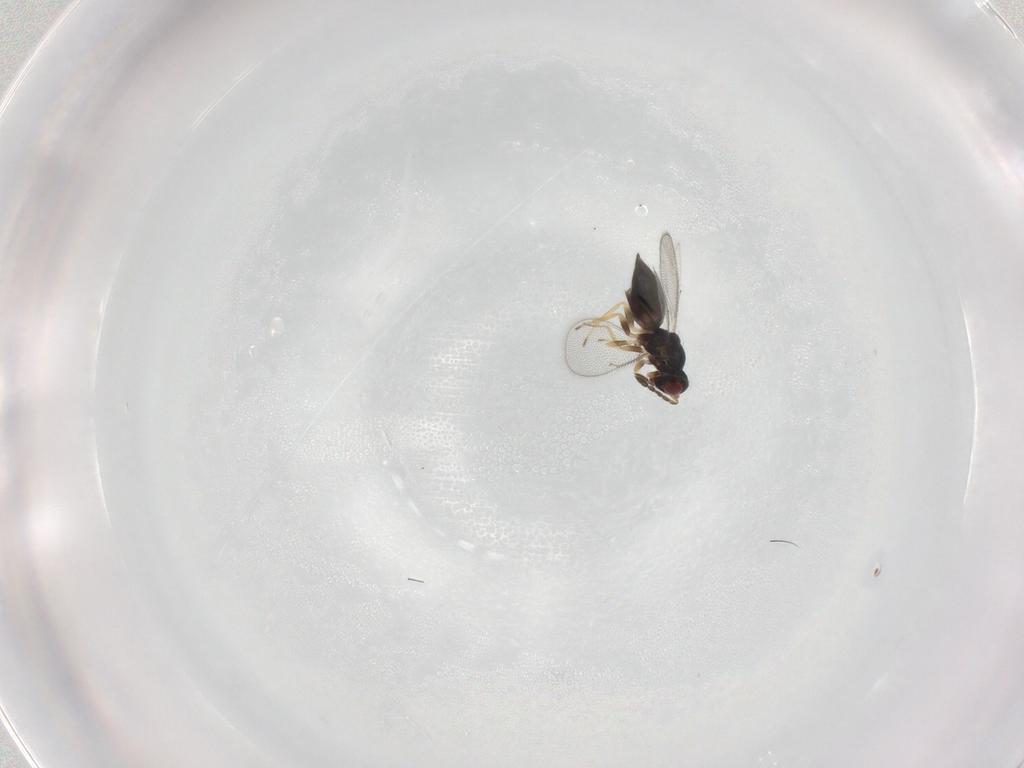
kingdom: Animalia
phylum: Arthropoda
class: Insecta
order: Hymenoptera
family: Eulophidae
